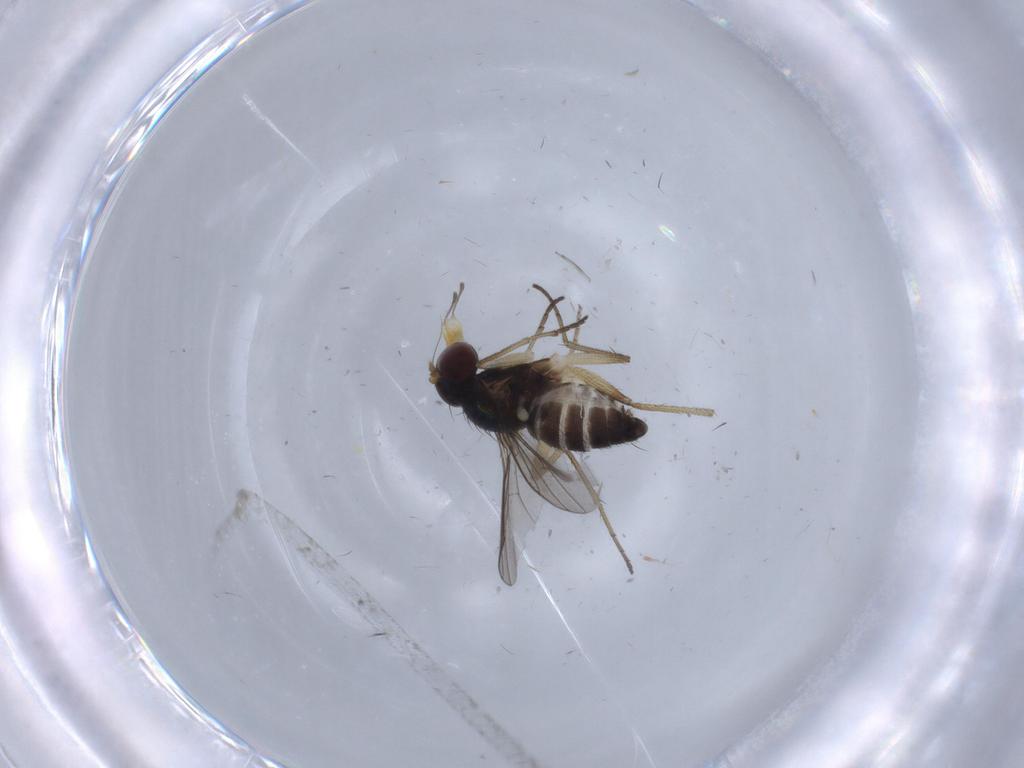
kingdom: Animalia
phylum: Arthropoda
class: Insecta
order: Diptera
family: Dolichopodidae
